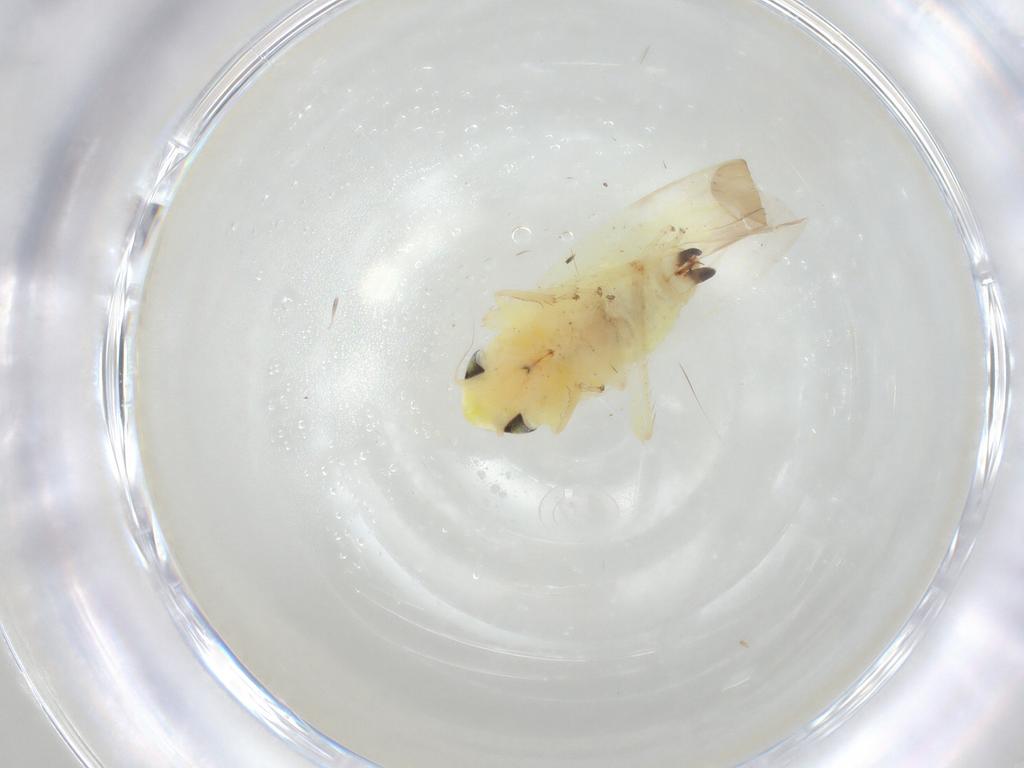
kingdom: Animalia
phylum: Arthropoda
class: Insecta
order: Hemiptera
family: Cicadellidae
